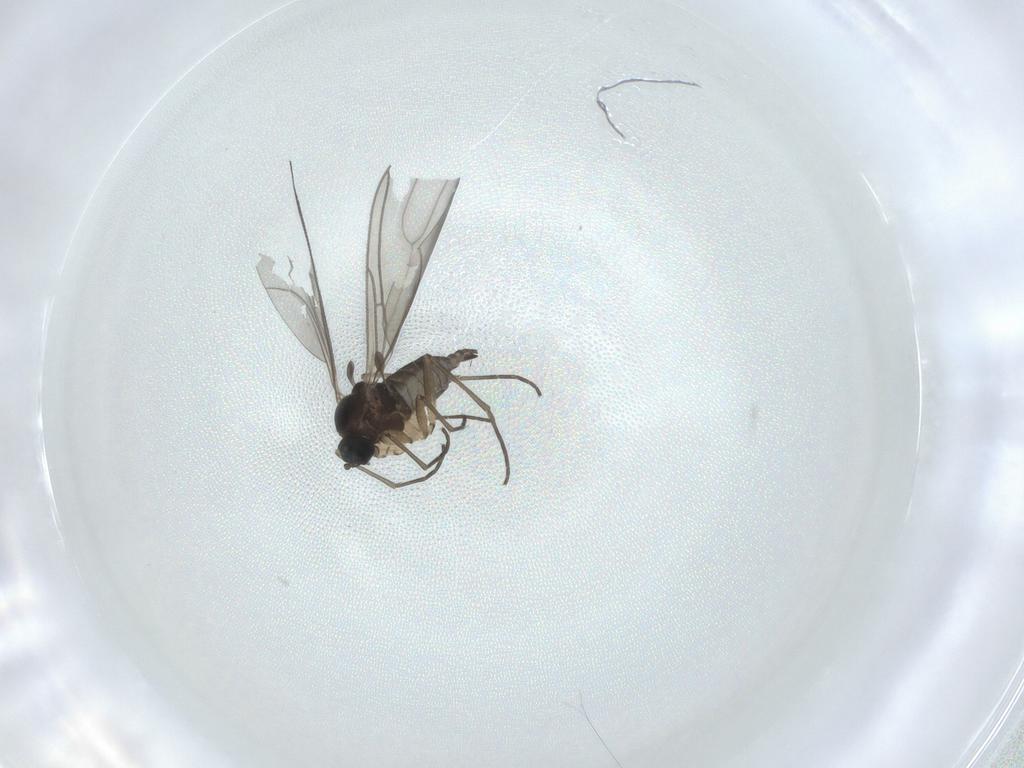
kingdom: Animalia
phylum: Arthropoda
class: Insecta
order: Diptera
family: Sciaridae
